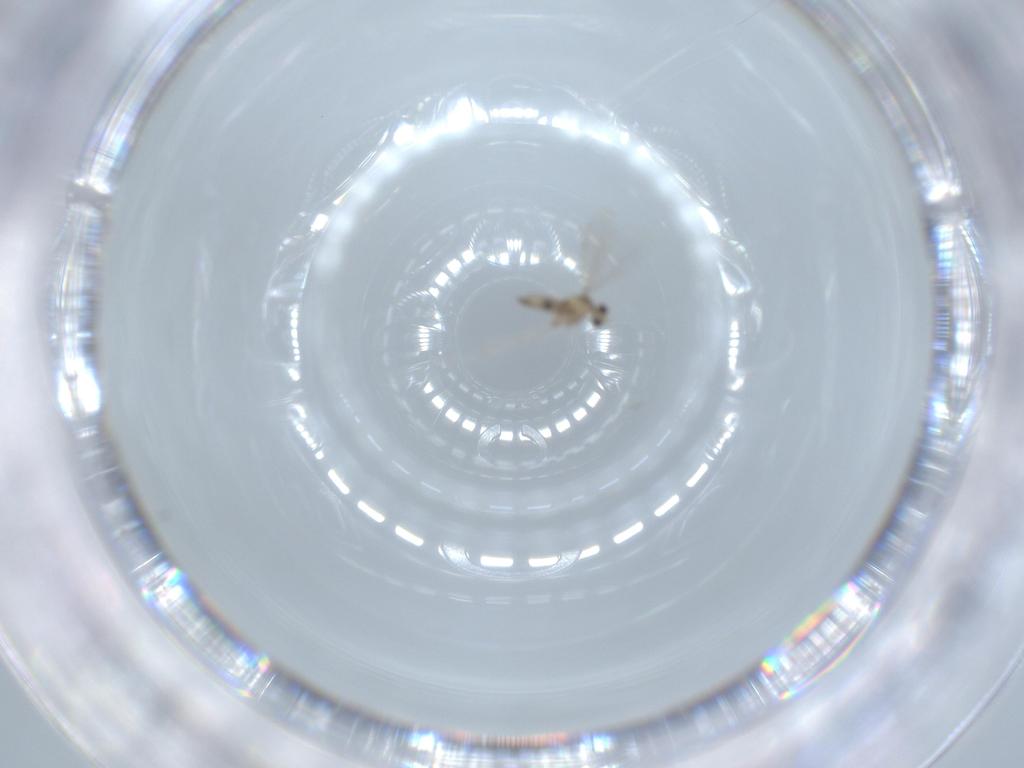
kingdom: Animalia
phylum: Arthropoda
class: Insecta
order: Diptera
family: Cecidomyiidae
